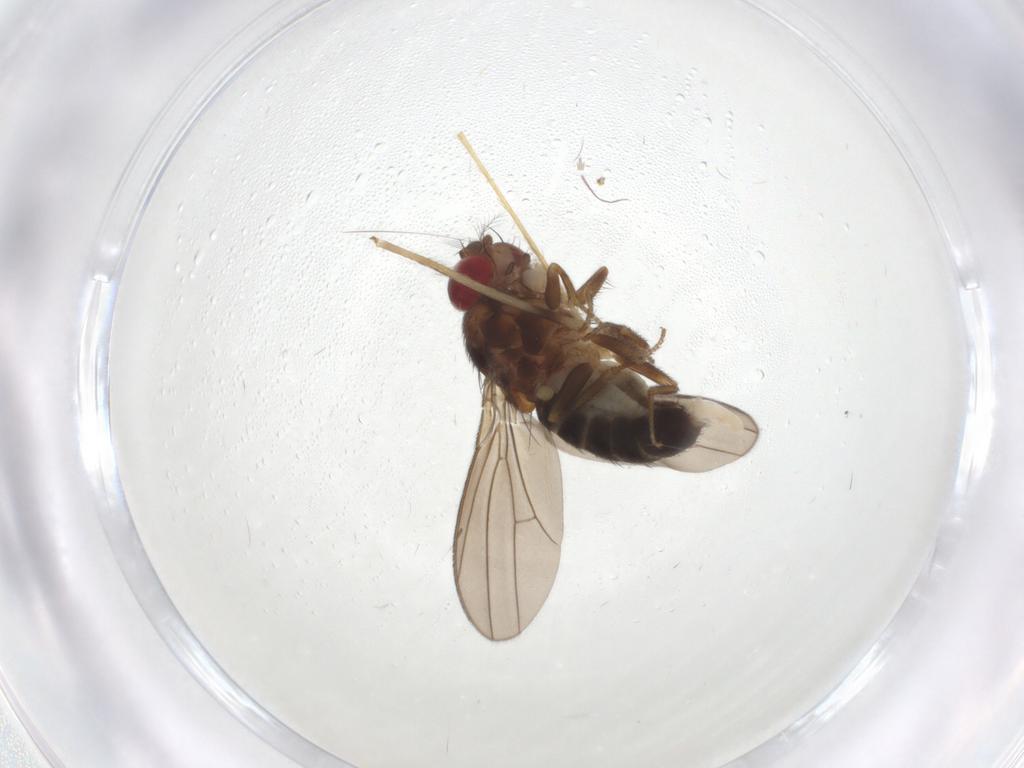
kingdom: Animalia
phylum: Arthropoda
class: Insecta
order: Diptera
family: Drosophilidae
